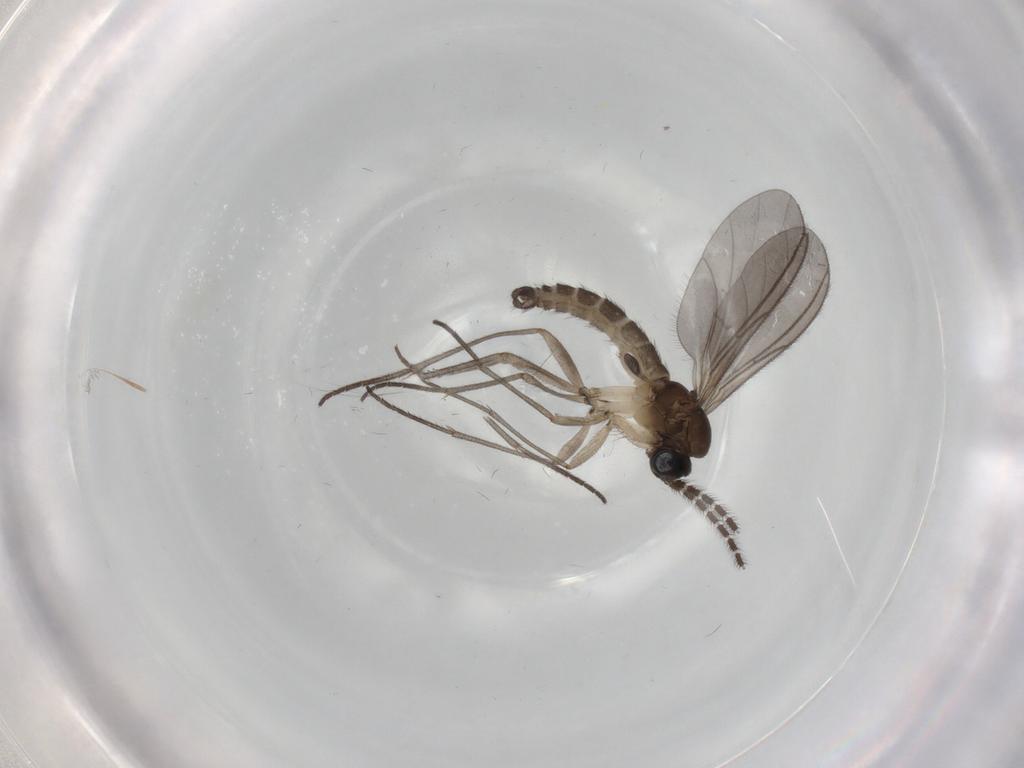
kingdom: Animalia
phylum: Arthropoda
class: Insecta
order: Diptera
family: Sciaridae
